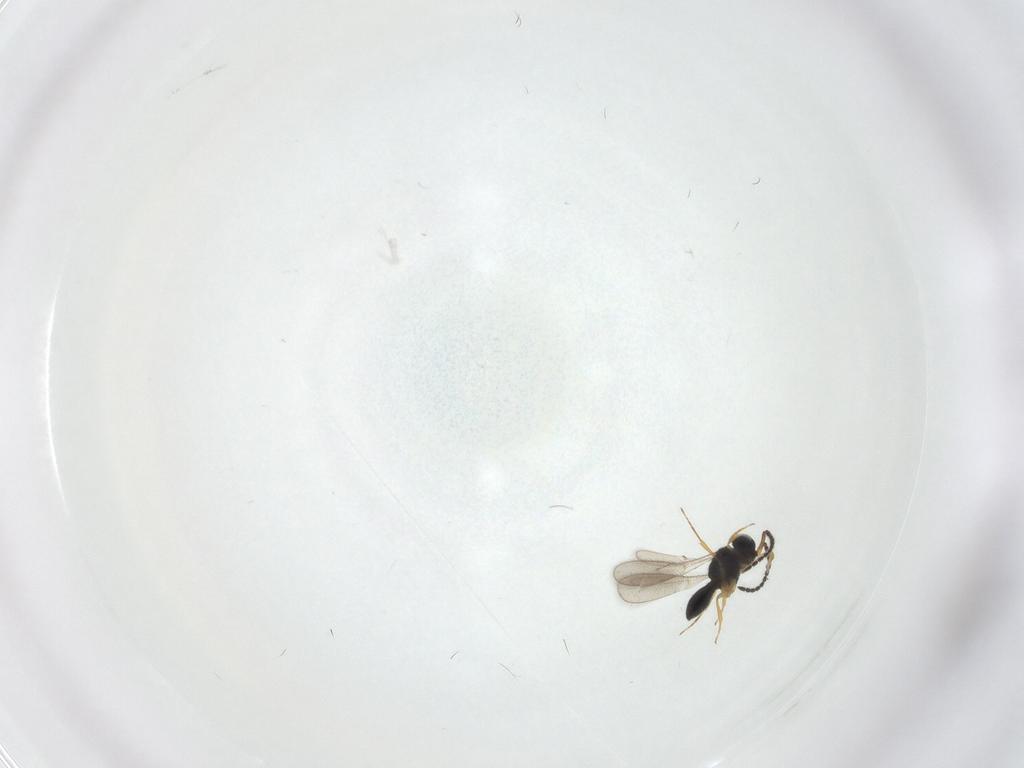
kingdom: Animalia
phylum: Arthropoda
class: Insecta
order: Hymenoptera
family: Scelionidae
